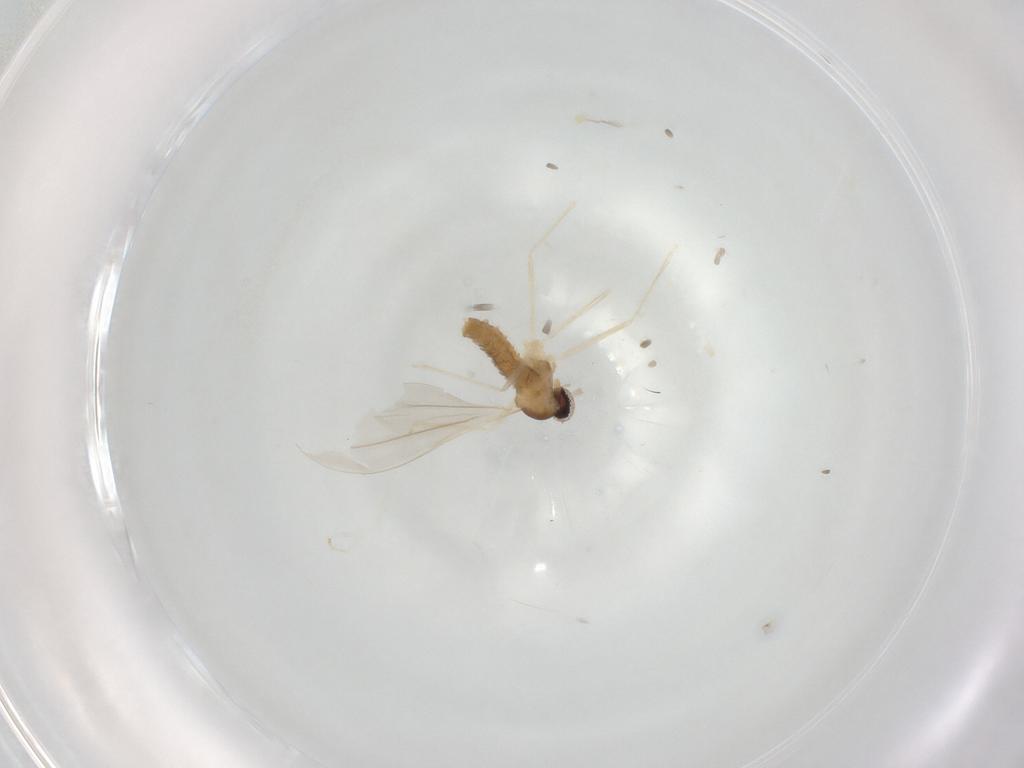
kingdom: Animalia
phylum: Arthropoda
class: Insecta
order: Diptera
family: Cecidomyiidae
